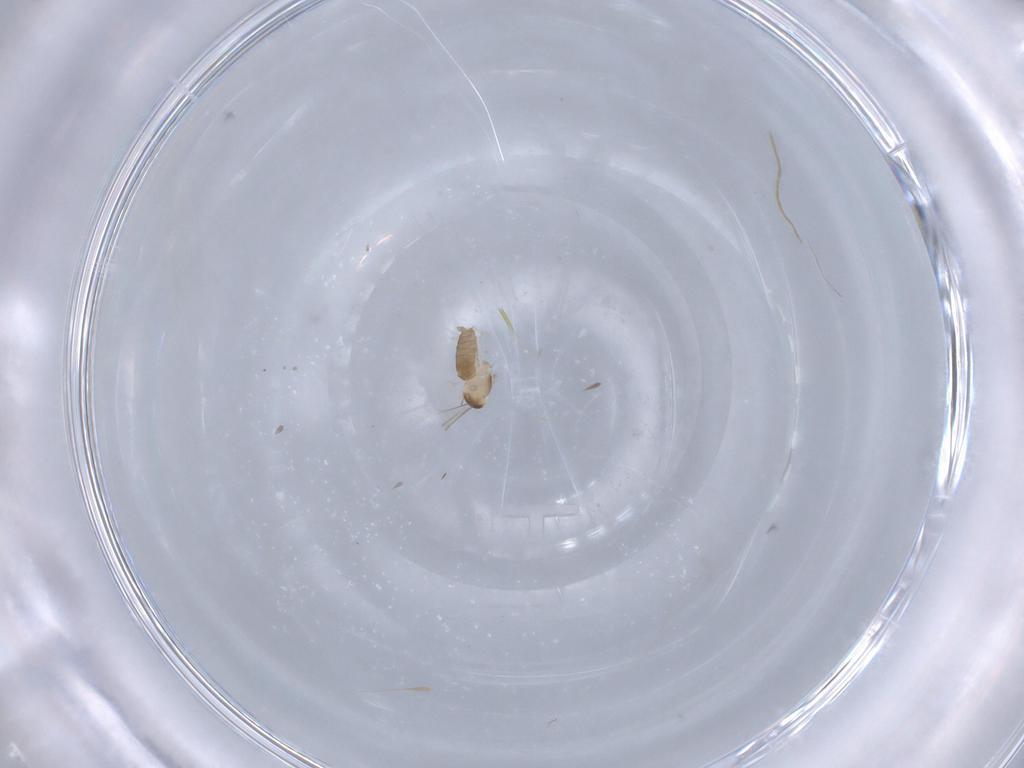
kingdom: Animalia
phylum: Arthropoda
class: Insecta
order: Diptera
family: Cecidomyiidae
